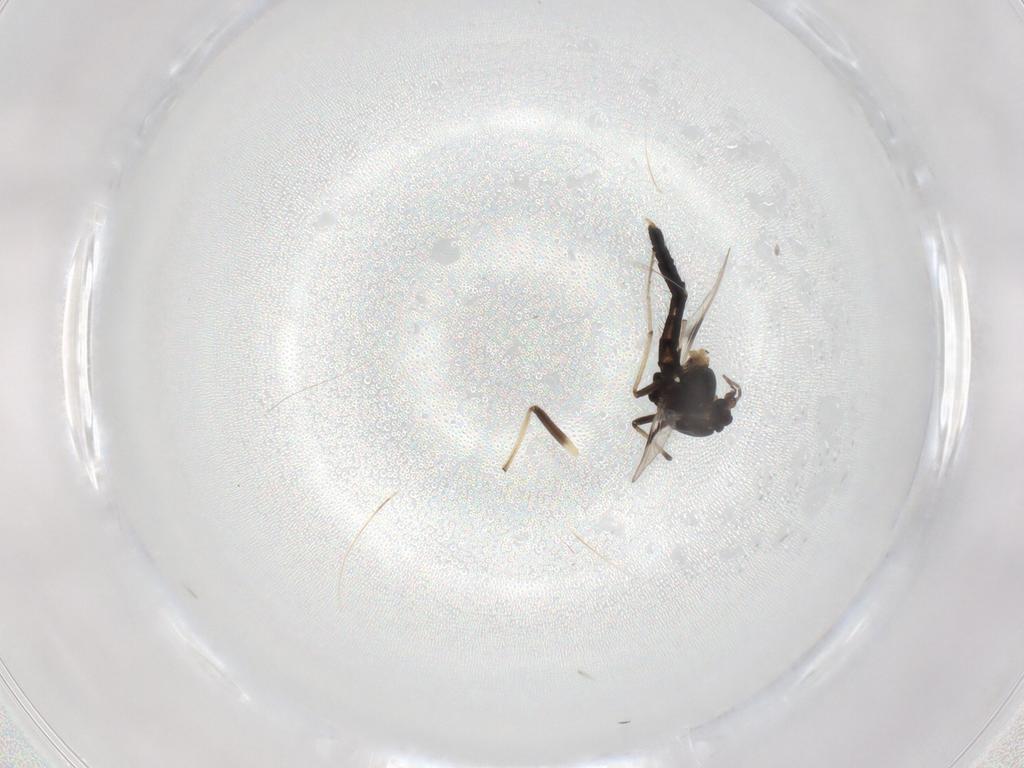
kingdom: Animalia
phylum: Arthropoda
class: Insecta
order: Diptera
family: Chironomidae
